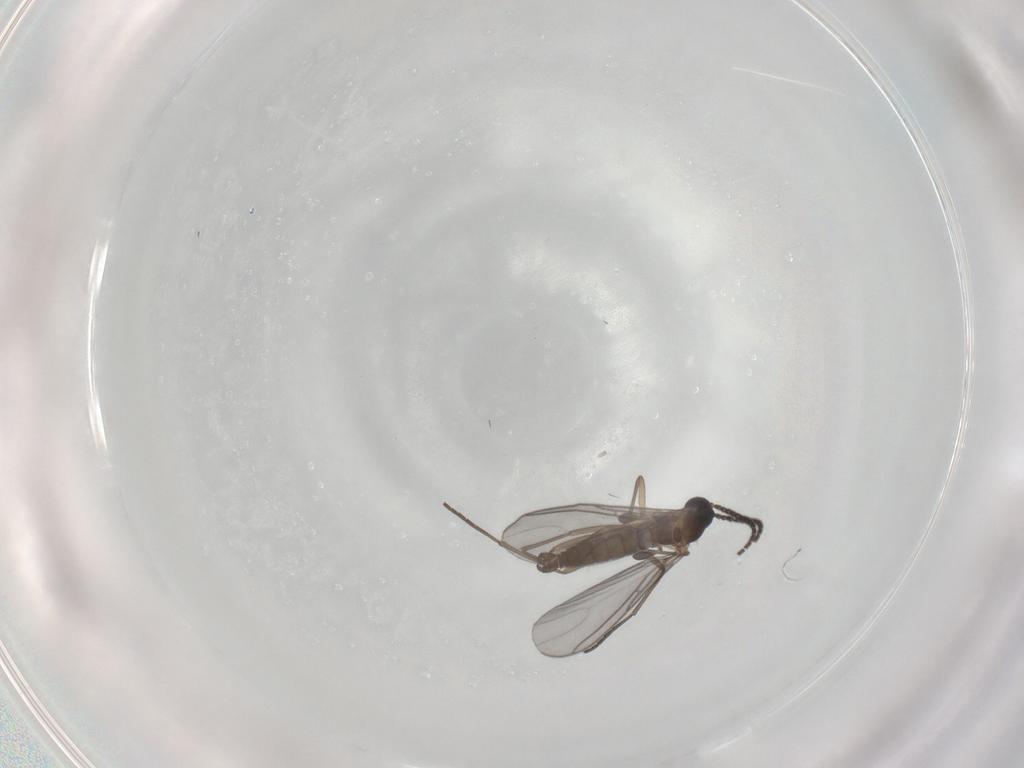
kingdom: Animalia
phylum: Arthropoda
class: Insecta
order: Diptera
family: Sciaridae
